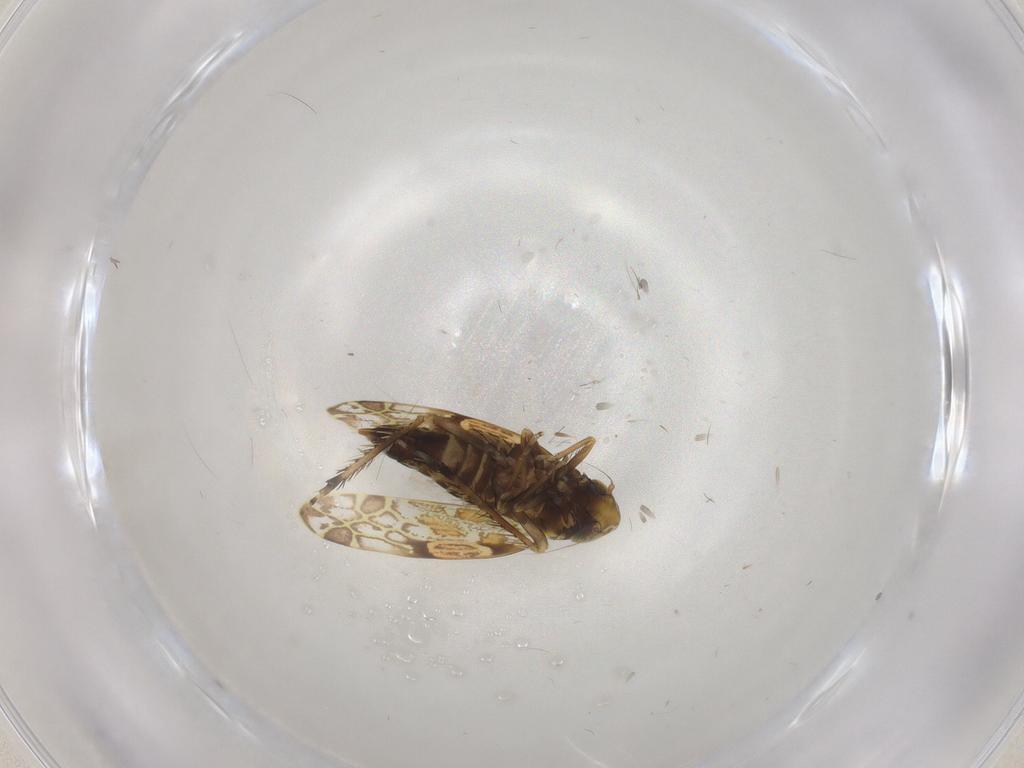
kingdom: Animalia
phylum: Arthropoda
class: Insecta
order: Hemiptera
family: Cicadellidae
